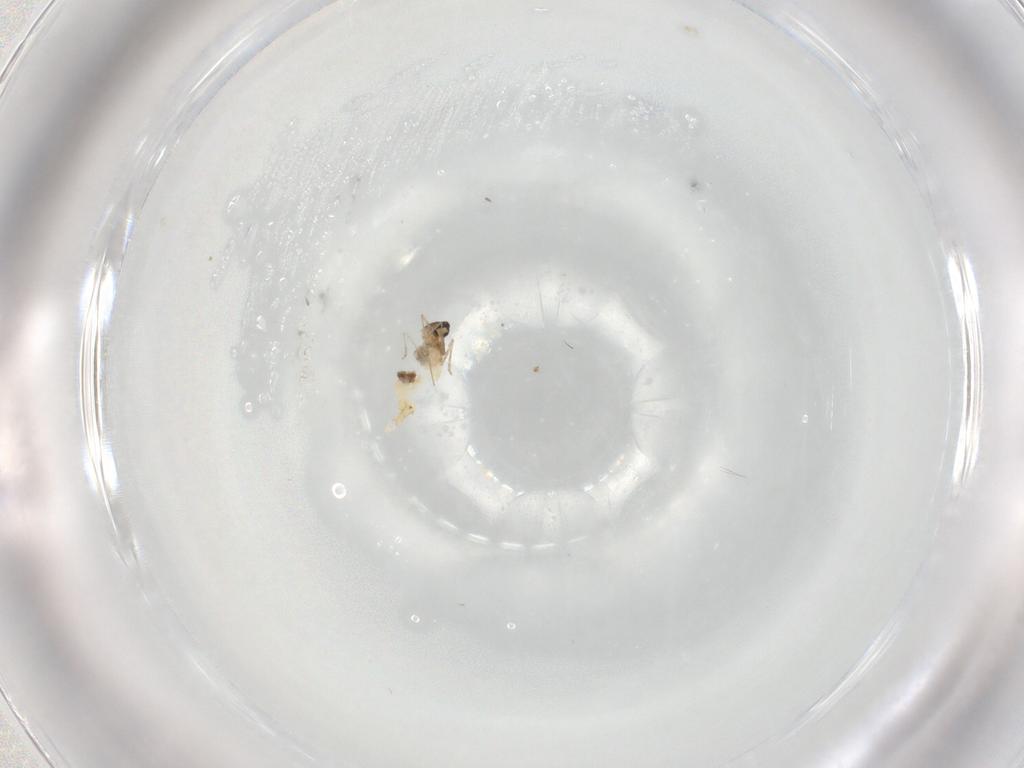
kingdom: Animalia
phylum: Arthropoda
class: Insecta
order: Diptera
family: Cecidomyiidae
